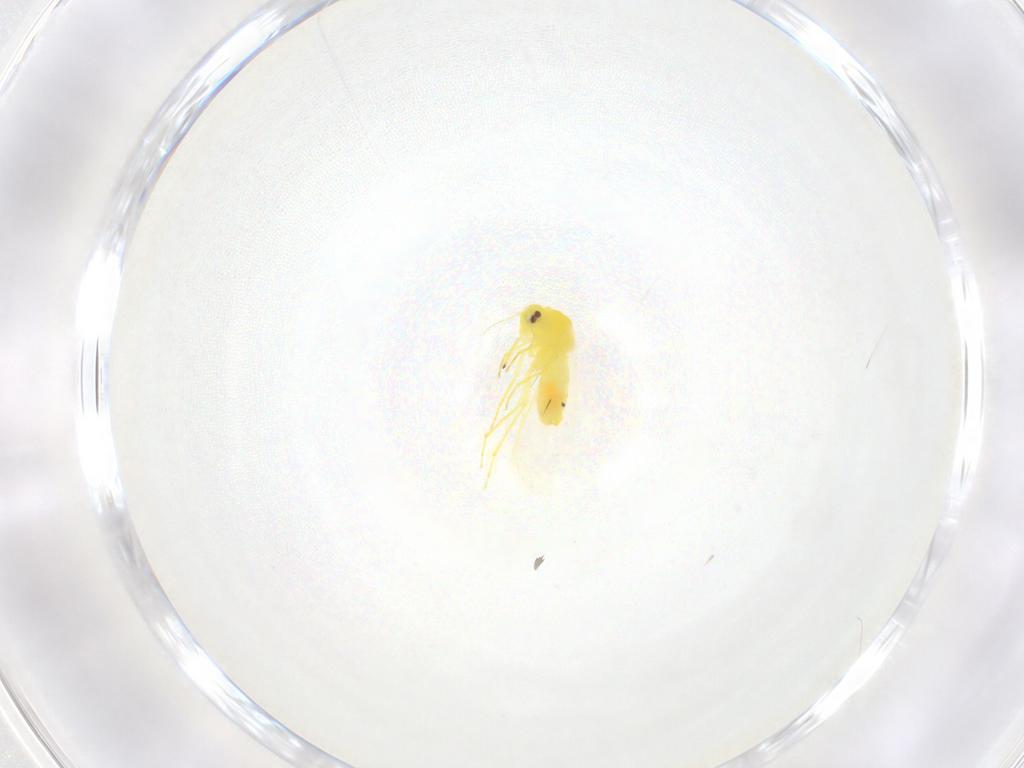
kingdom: Animalia
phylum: Arthropoda
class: Insecta
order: Hemiptera
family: Aleyrodidae
